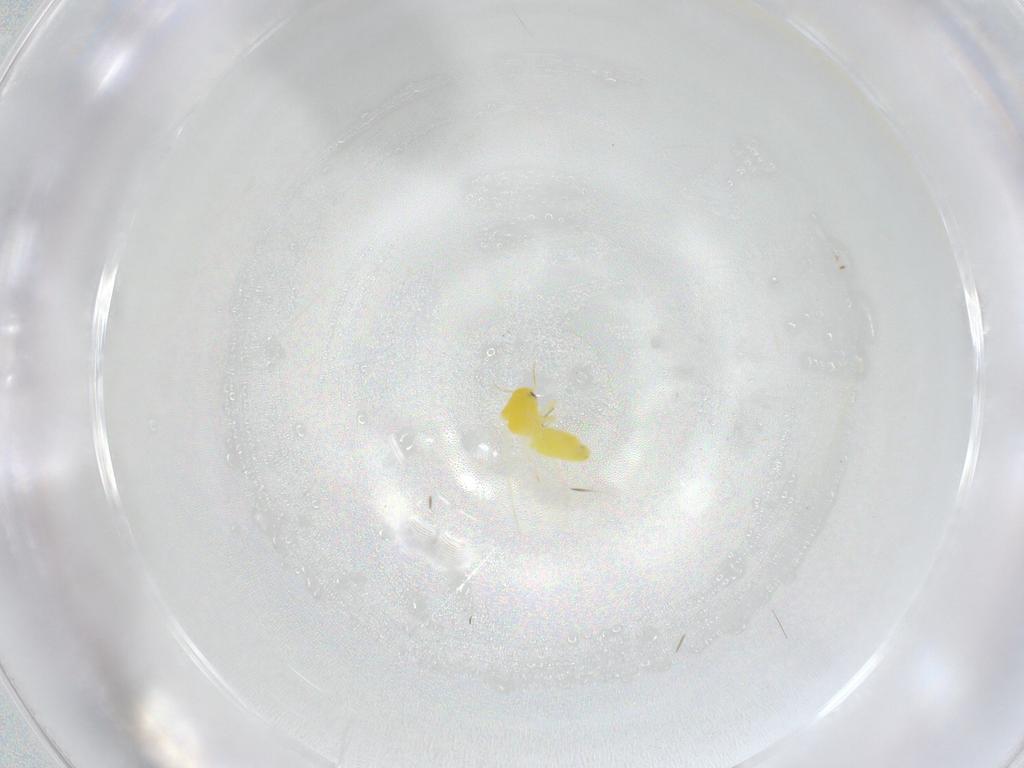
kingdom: Animalia
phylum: Arthropoda
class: Insecta
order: Hemiptera
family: Aleyrodidae
